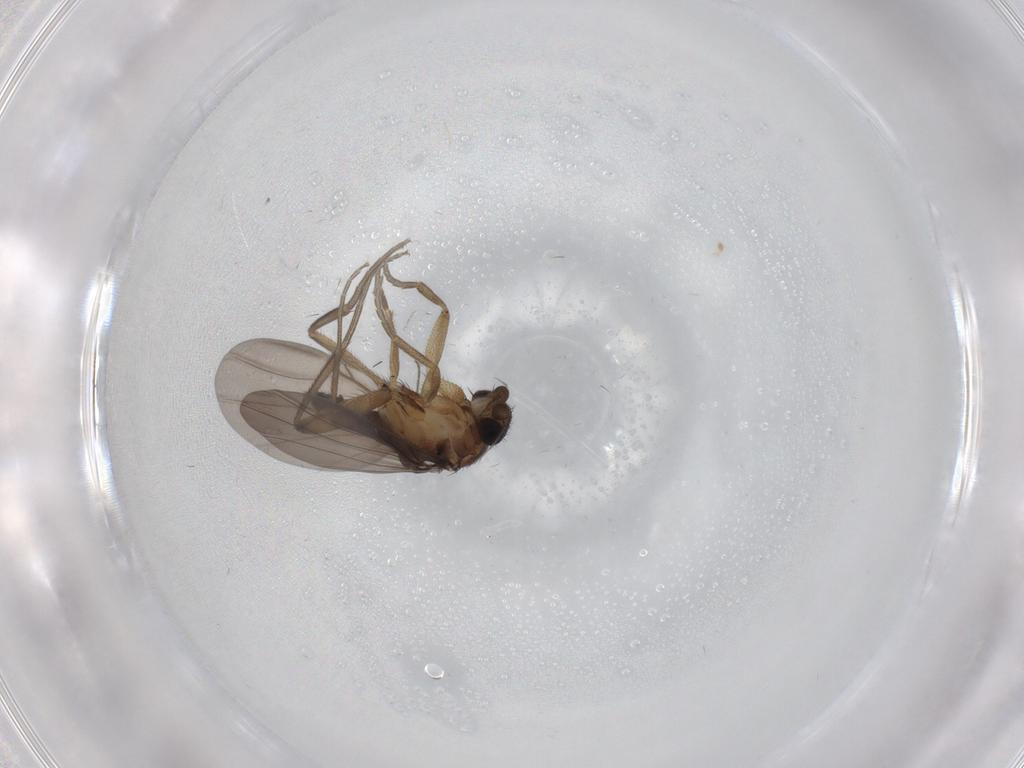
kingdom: Animalia
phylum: Arthropoda
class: Insecta
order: Diptera
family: Phoridae
